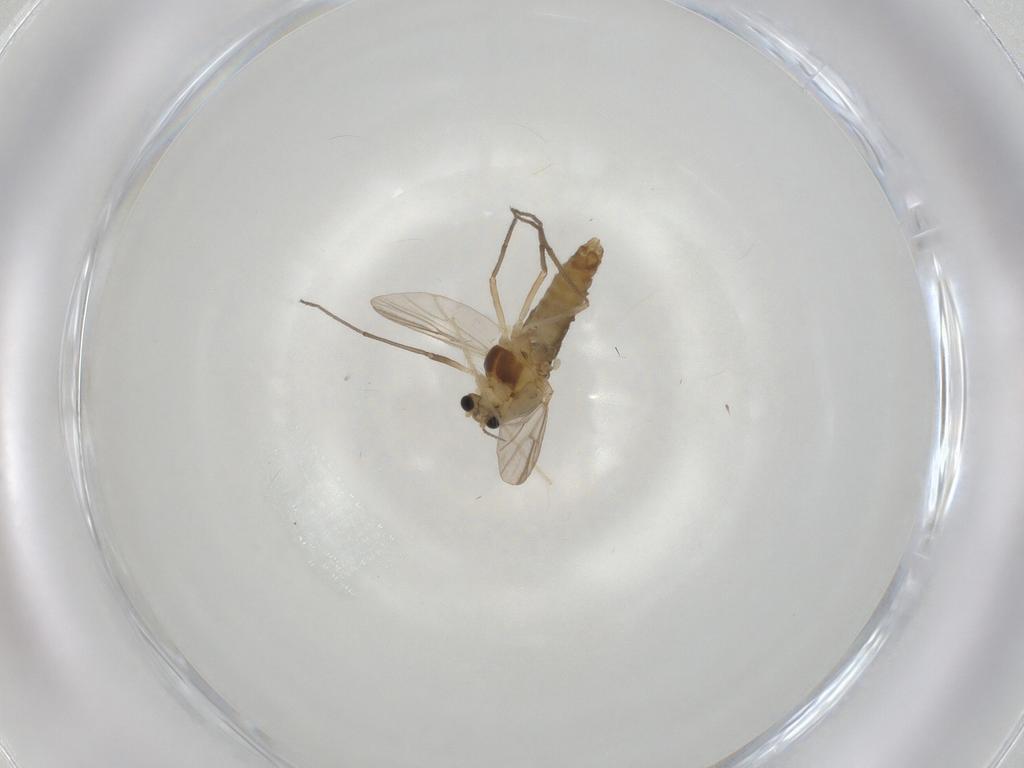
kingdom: Animalia
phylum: Arthropoda
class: Insecta
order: Diptera
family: Chironomidae
